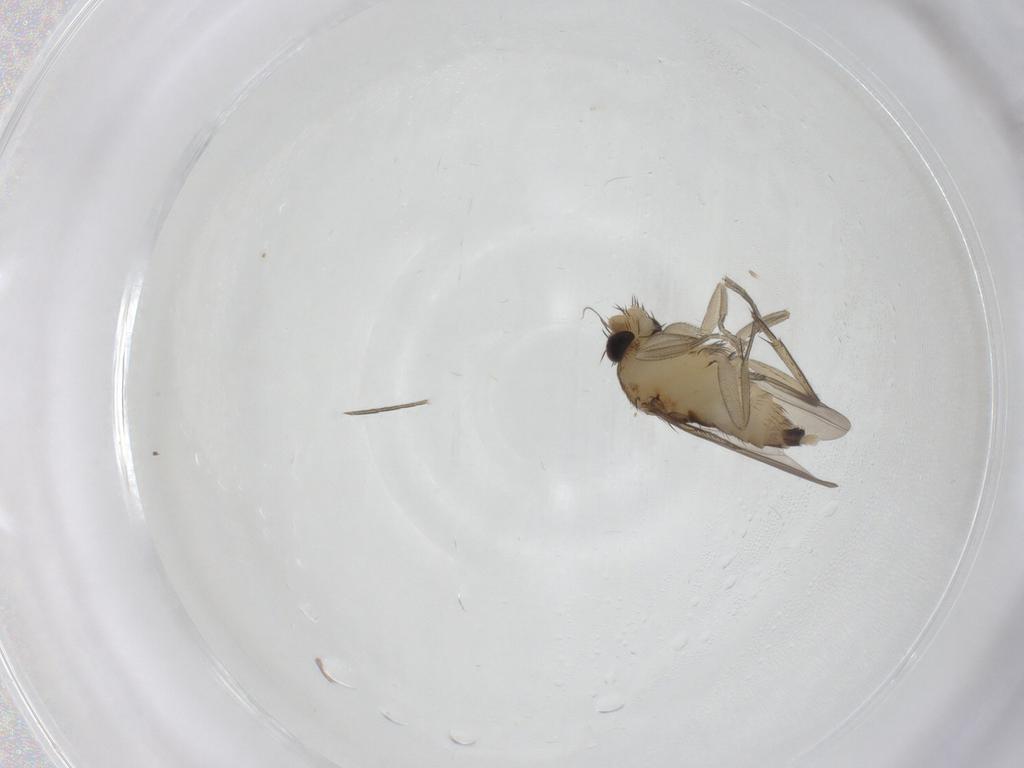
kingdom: Animalia
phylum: Arthropoda
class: Insecta
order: Diptera
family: Phoridae
